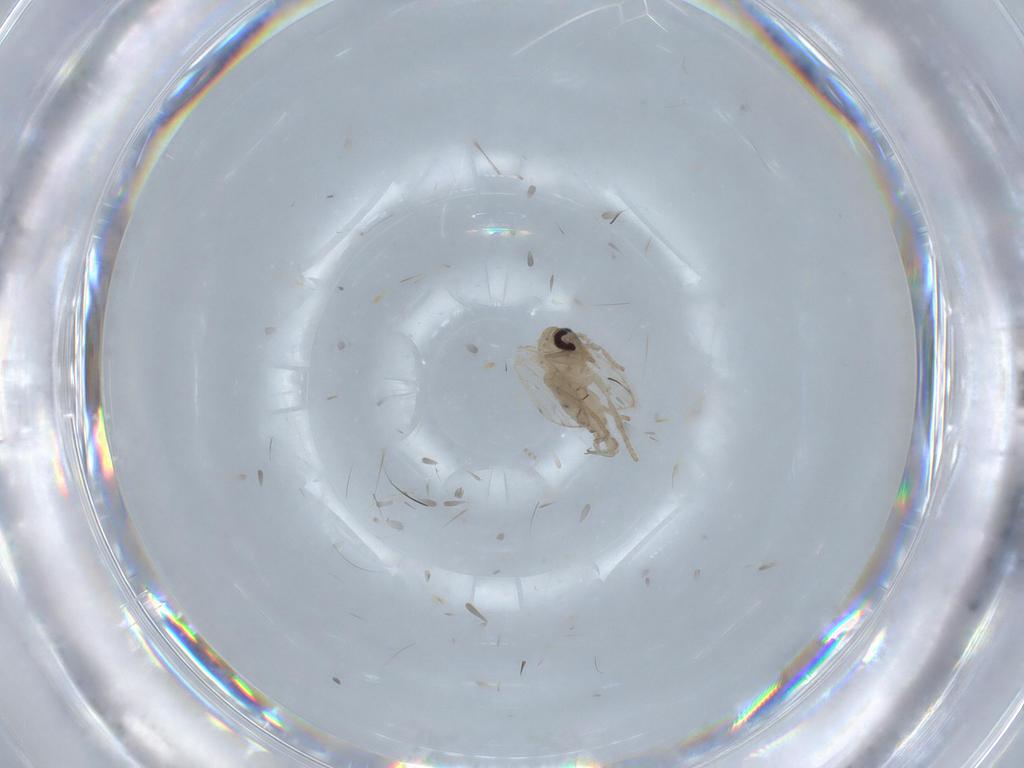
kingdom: Animalia
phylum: Arthropoda
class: Insecta
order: Diptera
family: Psychodidae
